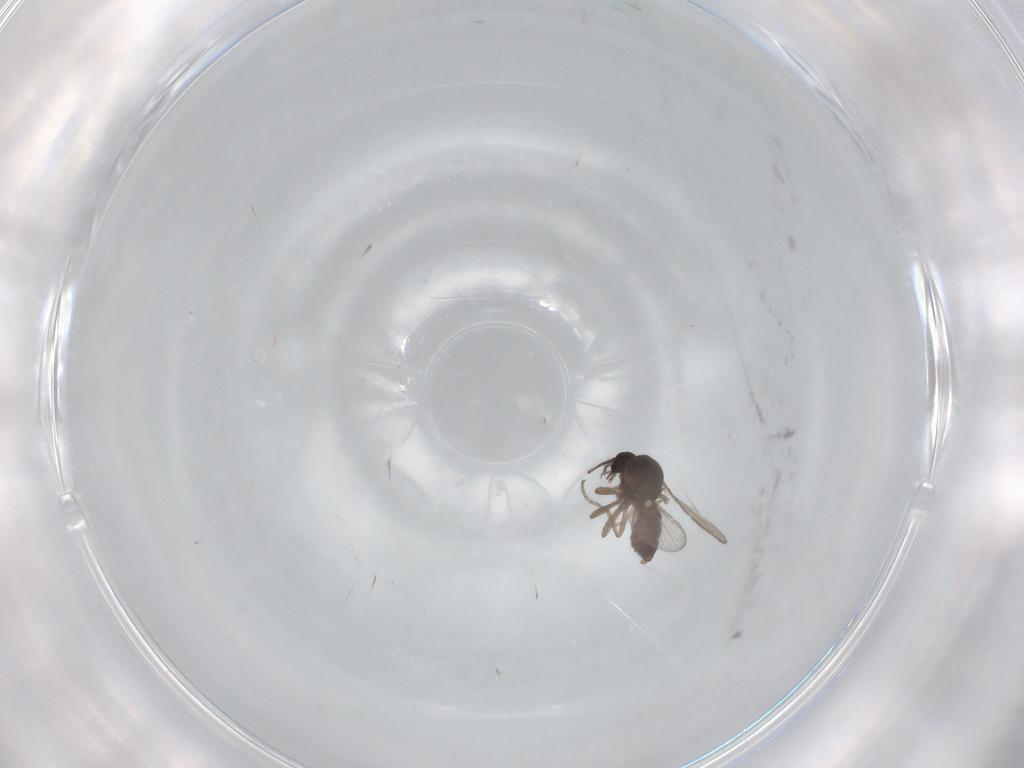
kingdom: Animalia
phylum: Arthropoda
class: Insecta
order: Diptera
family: Ceratopogonidae
